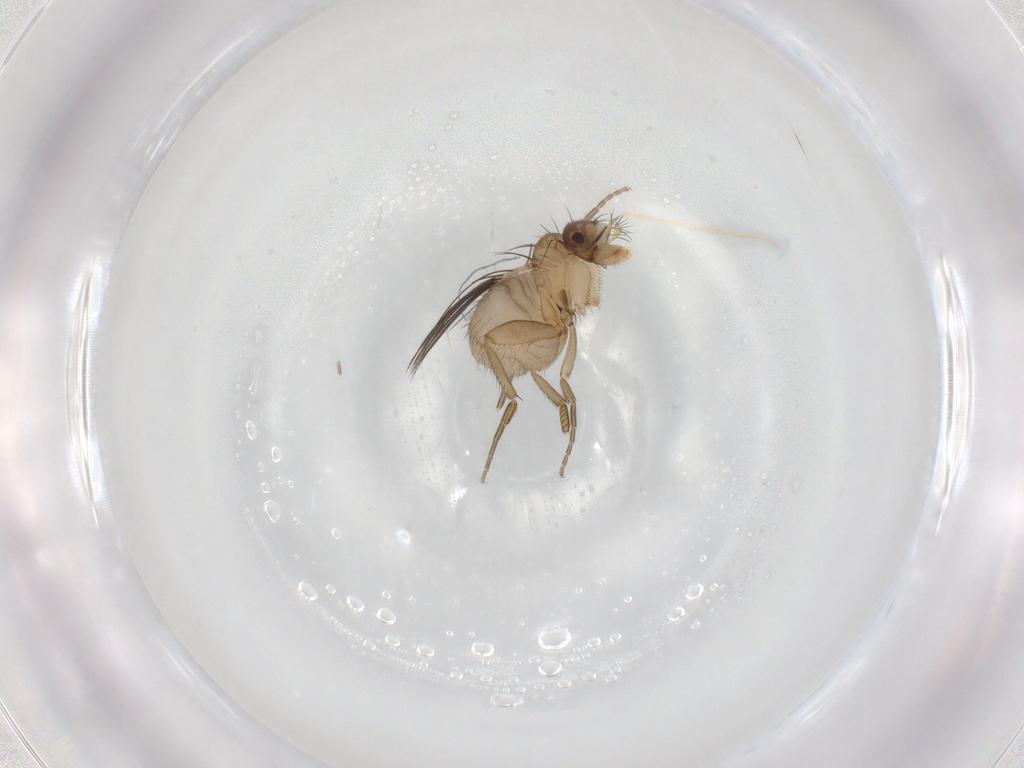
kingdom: Animalia
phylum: Arthropoda
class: Insecta
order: Diptera
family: Phoridae
